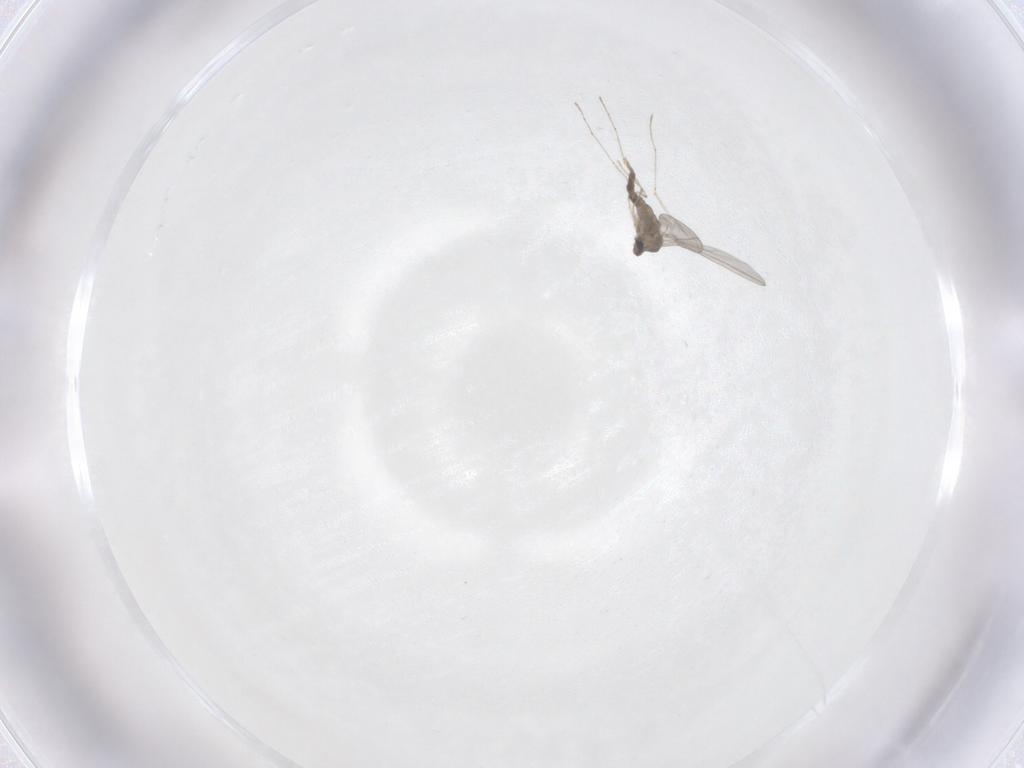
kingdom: Animalia
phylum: Arthropoda
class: Insecta
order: Diptera
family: Cecidomyiidae
